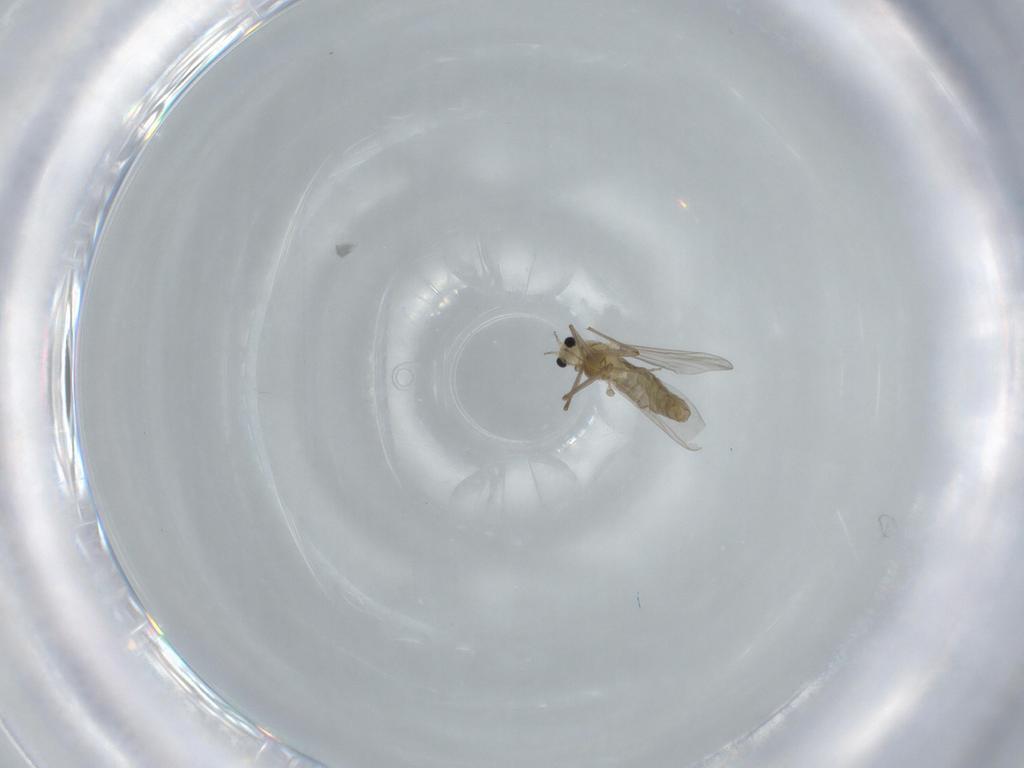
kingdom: Animalia
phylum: Arthropoda
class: Insecta
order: Diptera
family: Chironomidae
